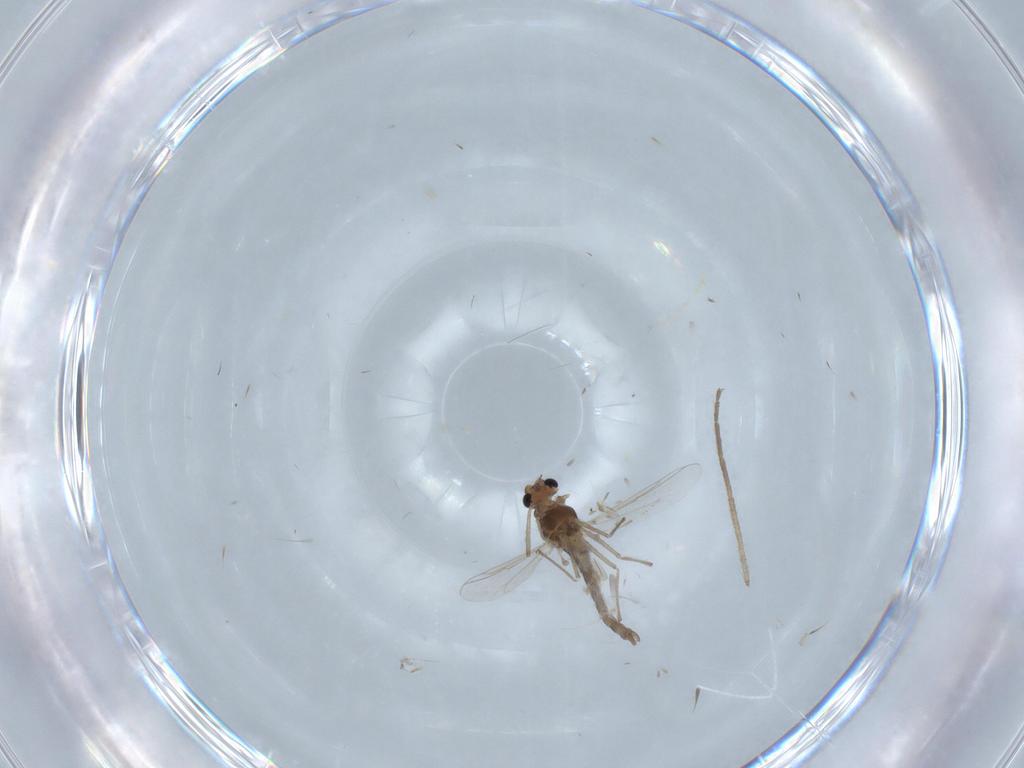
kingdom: Animalia
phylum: Arthropoda
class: Insecta
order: Diptera
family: Chironomidae
